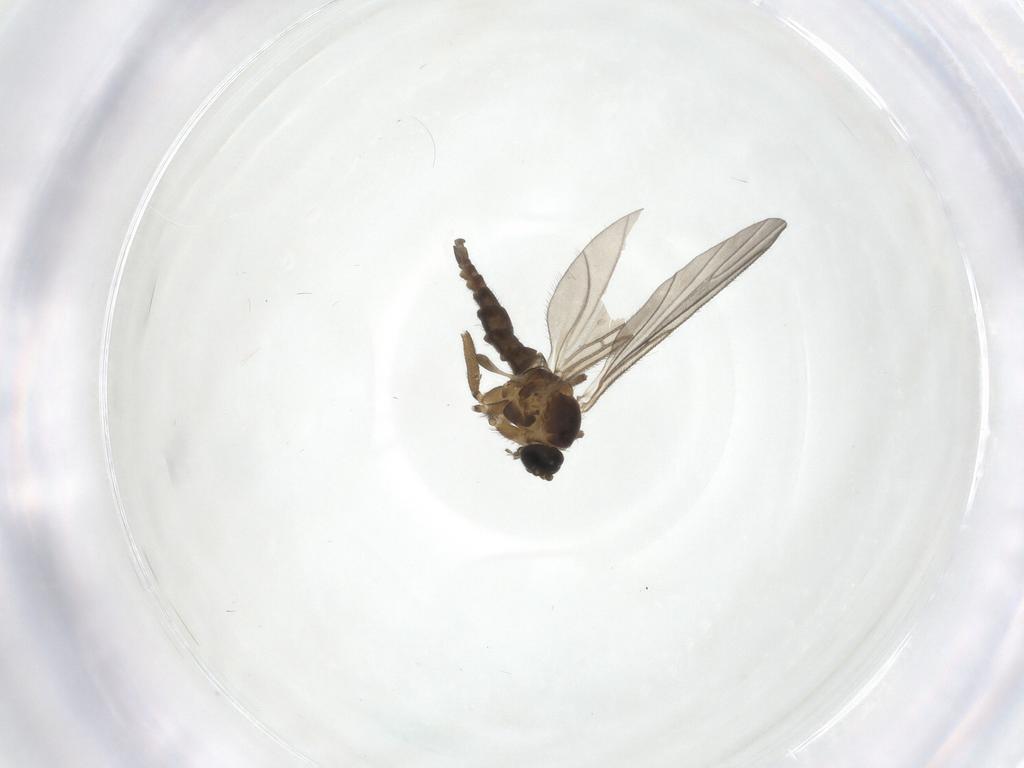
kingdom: Animalia
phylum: Arthropoda
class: Insecta
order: Diptera
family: Sciaridae
